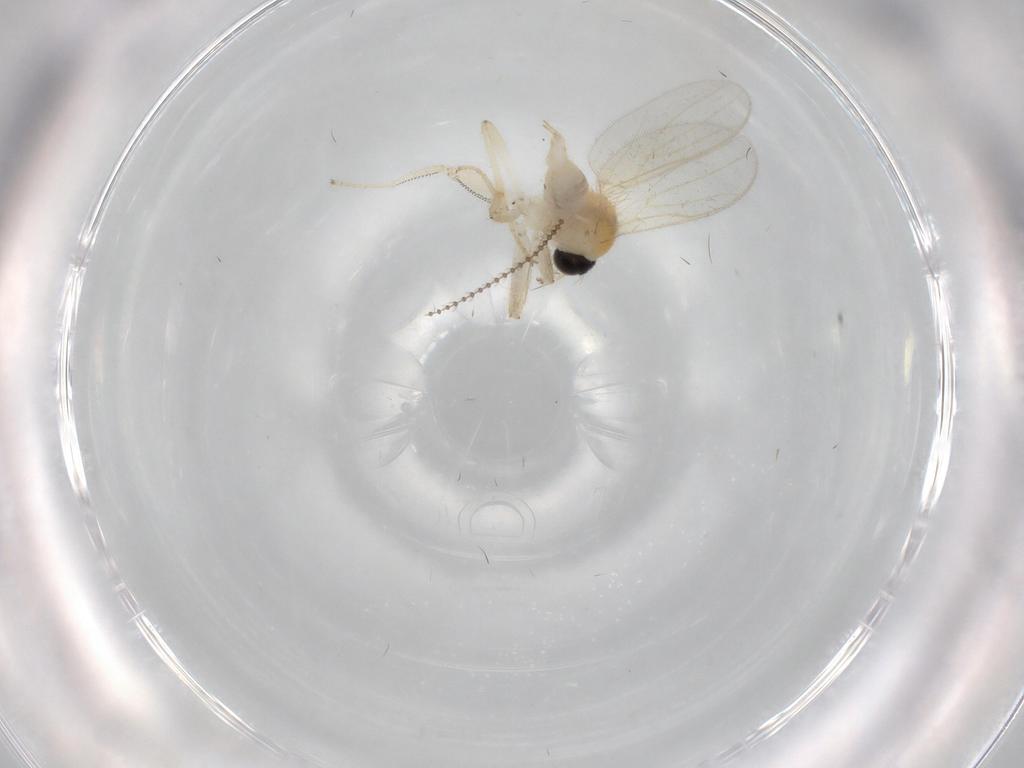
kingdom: Animalia
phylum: Arthropoda
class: Insecta
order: Diptera
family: Cecidomyiidae
